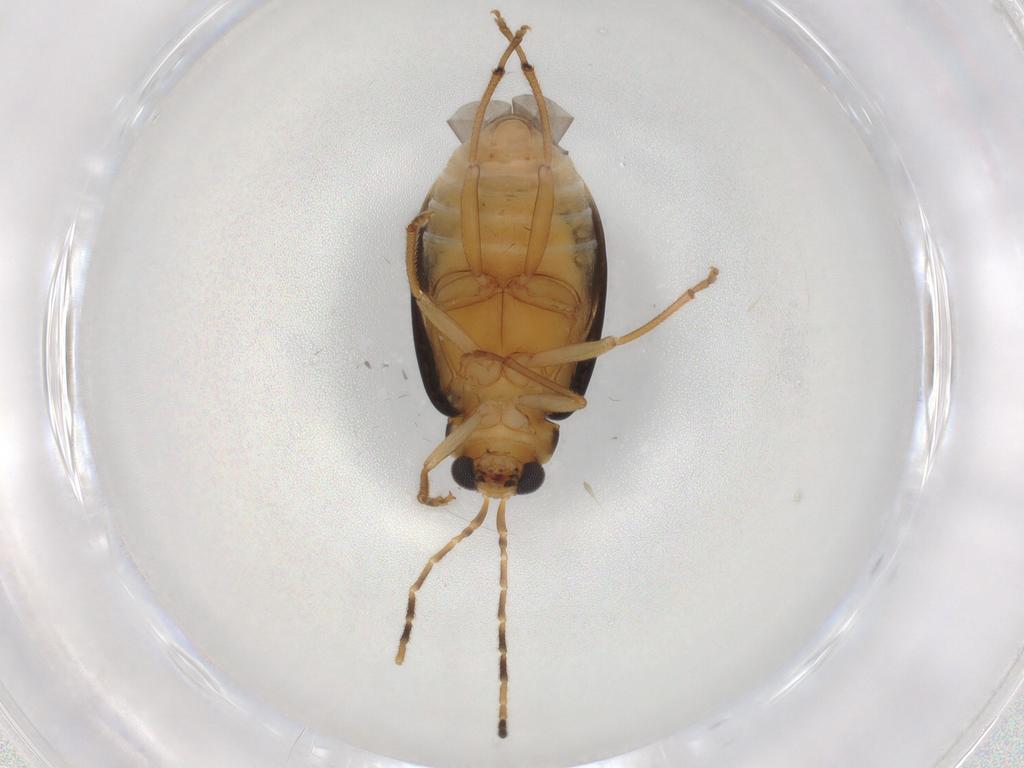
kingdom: Animalia
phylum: Arthropoda
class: Insecta
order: Coleoptera
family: Chrysomelidae
